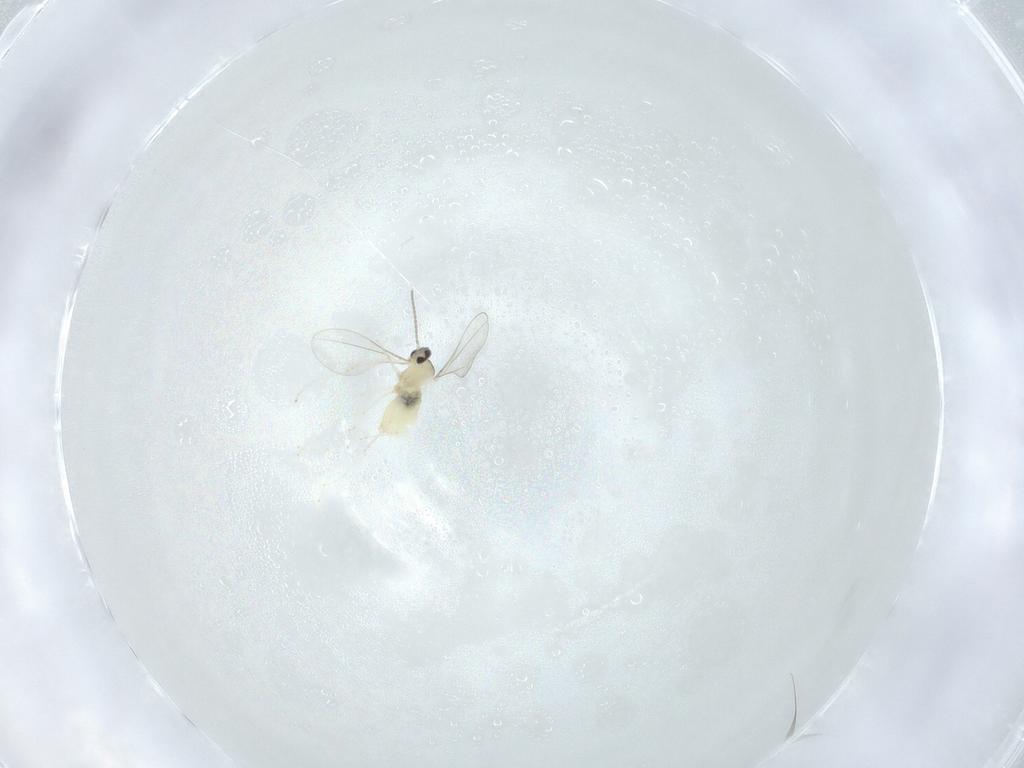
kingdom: Animalia
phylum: Arthropoda
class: Insecta
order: Diptera
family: Cecidomyiidae
